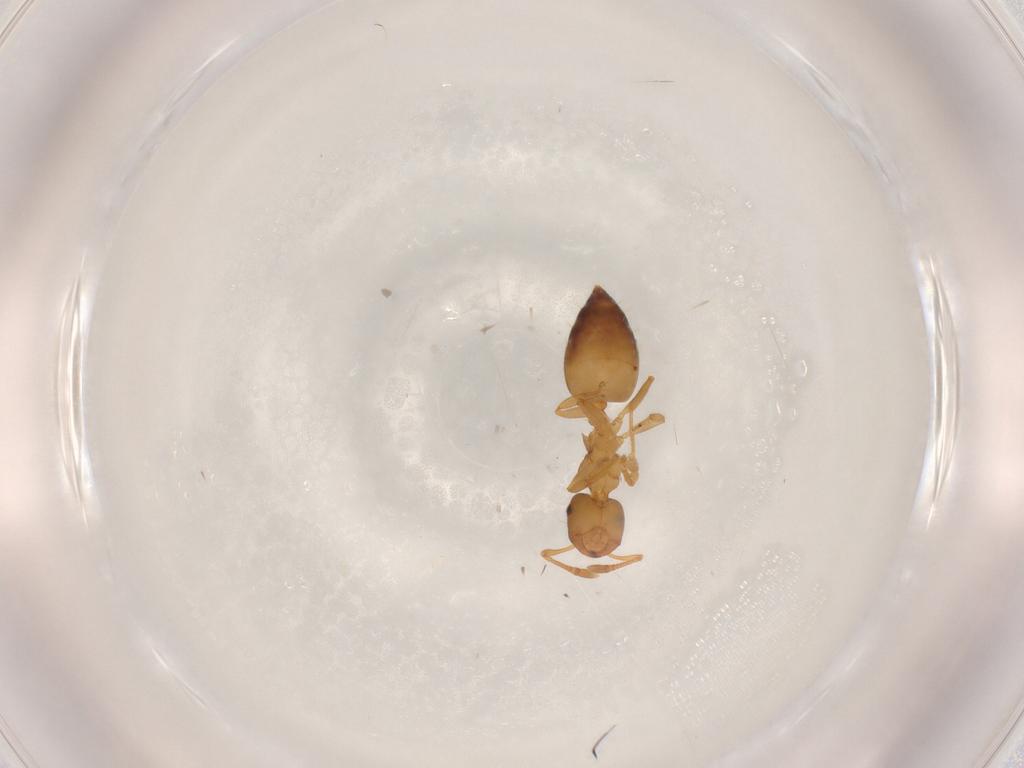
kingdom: Animalia
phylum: Arthropoda
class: Insecta
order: Hymenoptera
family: Formicidae
